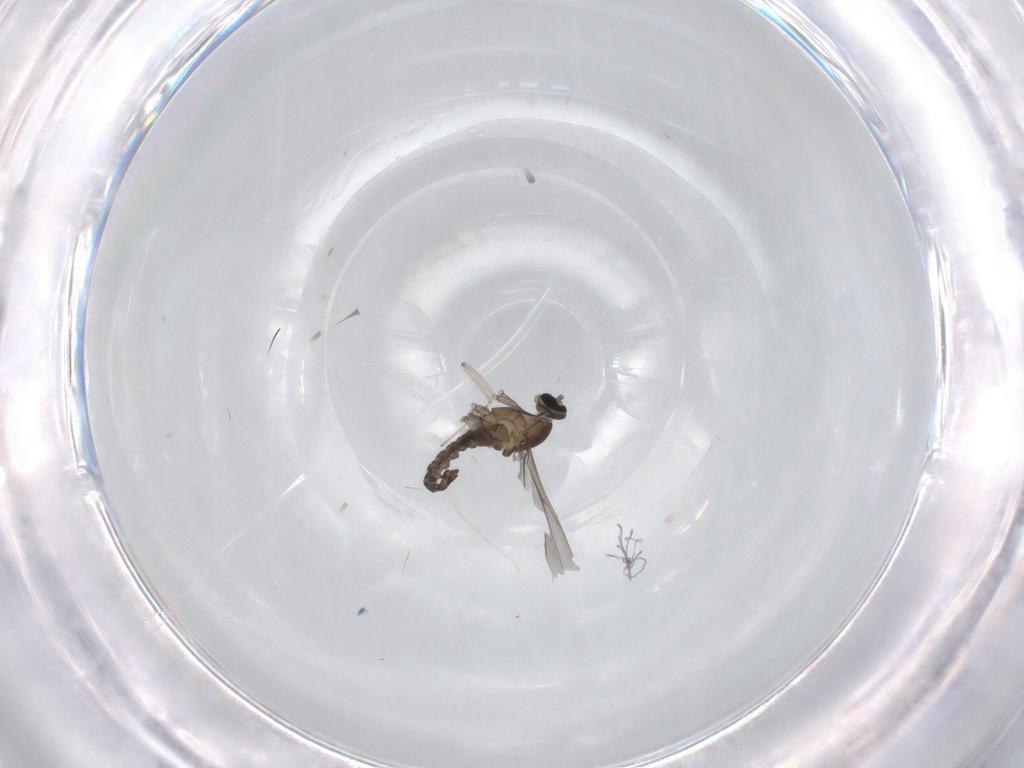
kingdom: Animalia
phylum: Arthropoda
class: Insecta
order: Diptera
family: Cecidomyiidae
